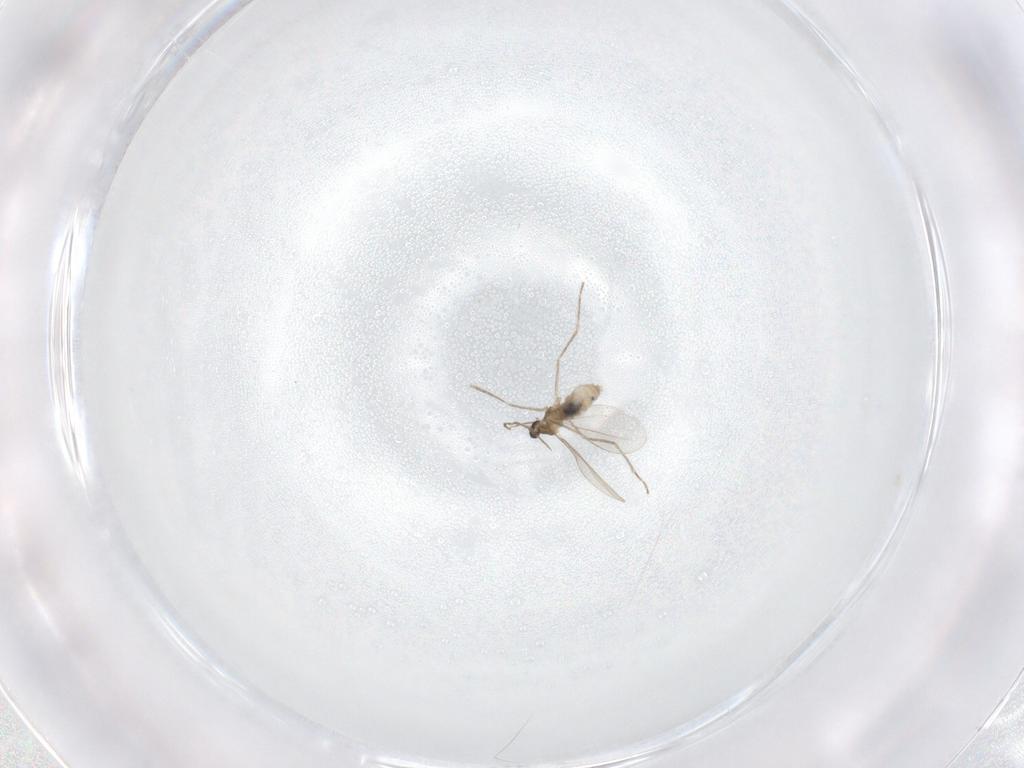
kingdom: Animalia
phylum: Arthropoda
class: Insecta
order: Diptera
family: Cecidomyiidae
